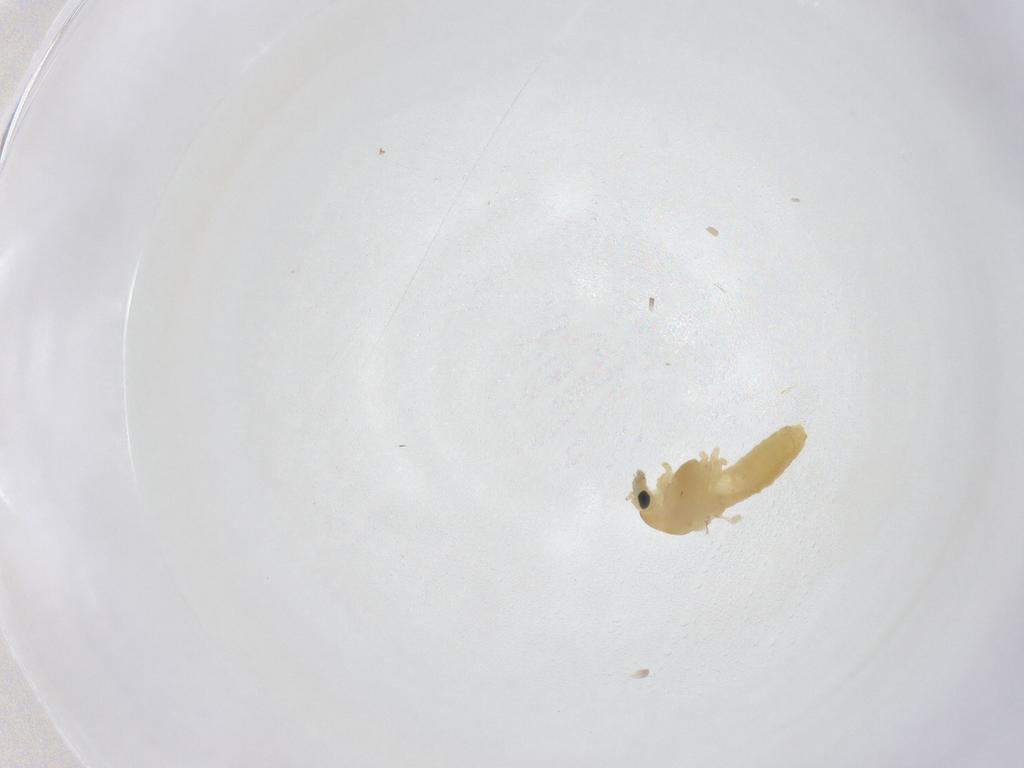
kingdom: Animalia
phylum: Arthropoda
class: Insecta
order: Diptera
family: Chironomidae
